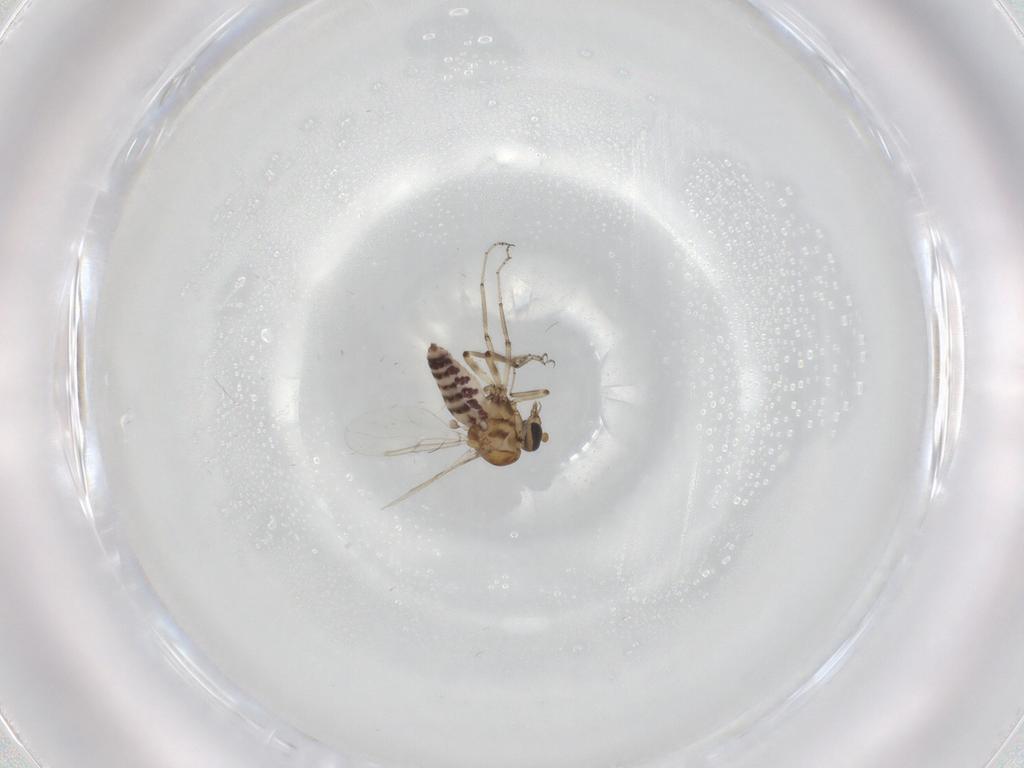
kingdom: Animalia
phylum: Arthropoda
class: Insecta
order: Diptera
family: Ceratopogonidae
